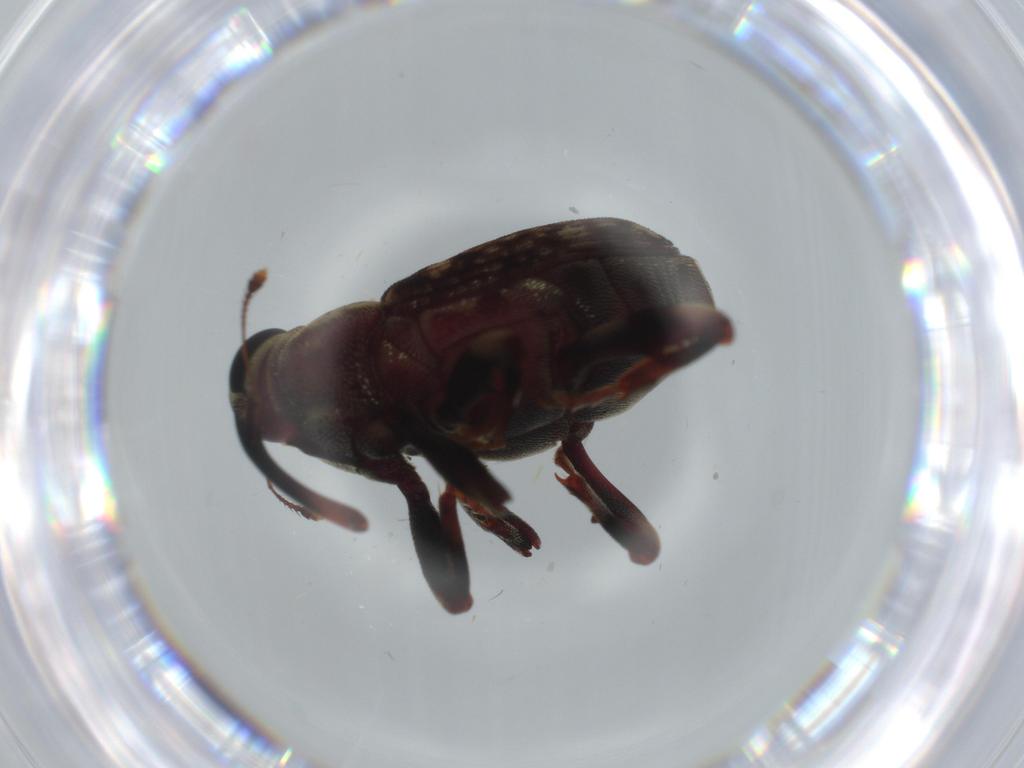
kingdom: Animalia
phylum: Arthropoda
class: Insecta
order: Coleoptera
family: Curculionidae
